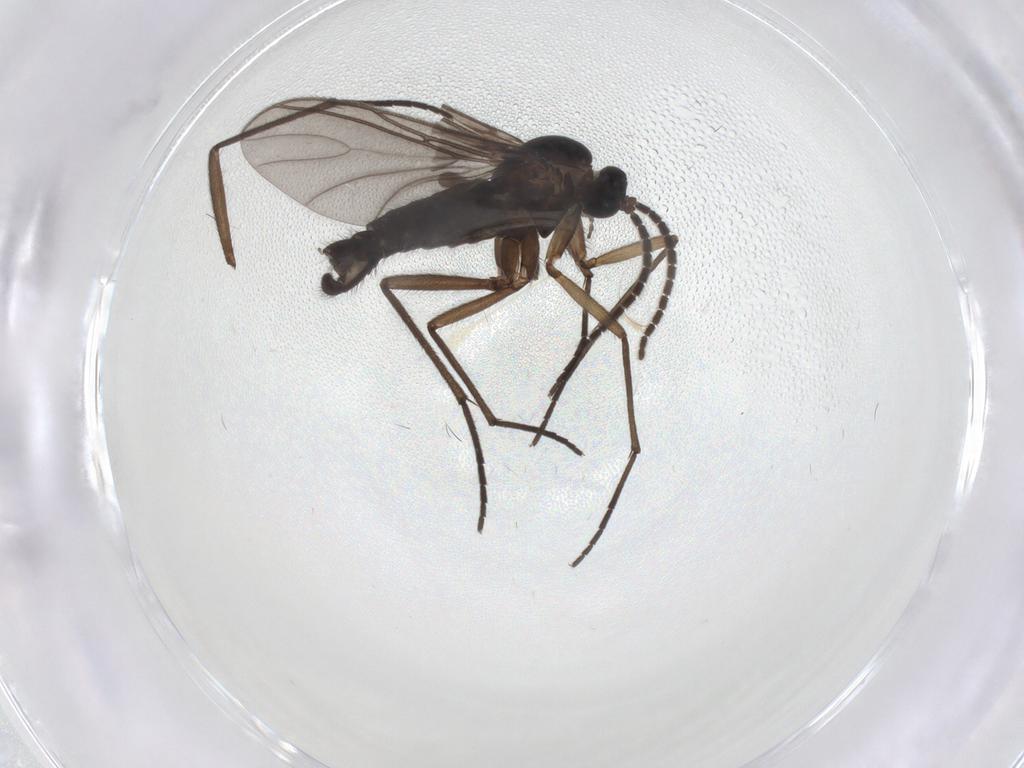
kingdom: Animalia
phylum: Arthropoda
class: Insecta
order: Diptera
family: Sciaridae
